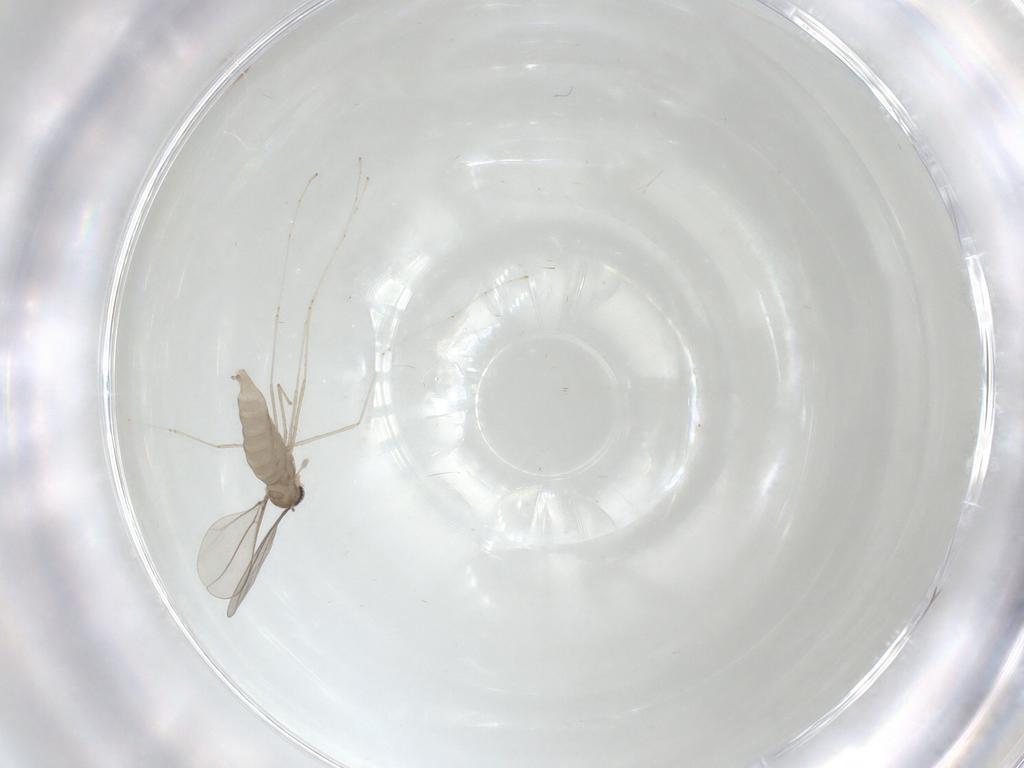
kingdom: Animalia
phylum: Arthropoda
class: Insecta
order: Diptera
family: Cecidomyiidae
